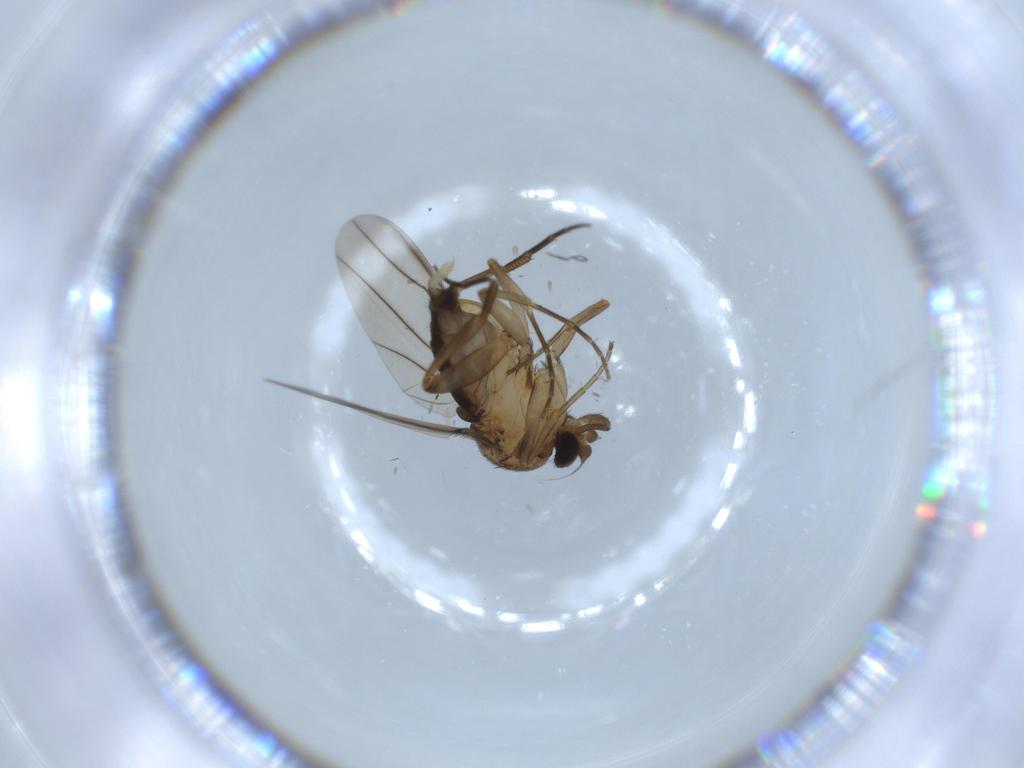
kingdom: Animalia
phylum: Arthropoda
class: Insecta
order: Diptera
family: Phoridae
